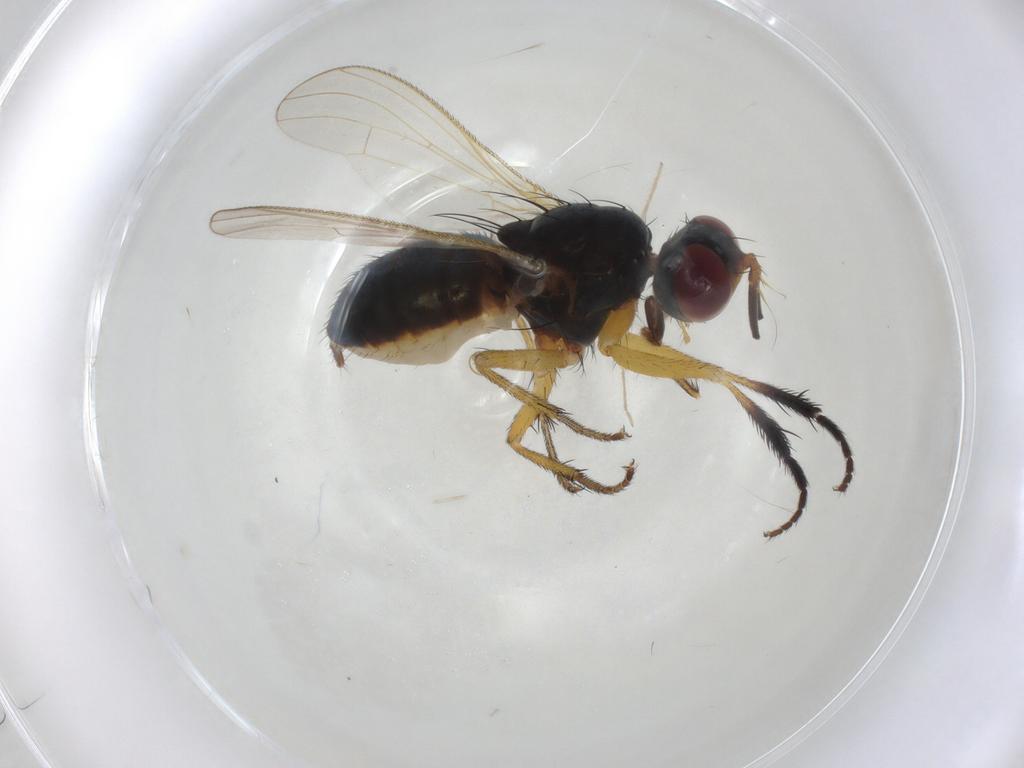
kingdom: Animalia
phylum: Arthropoda
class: Insecta
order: Diptera
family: Muscidae
